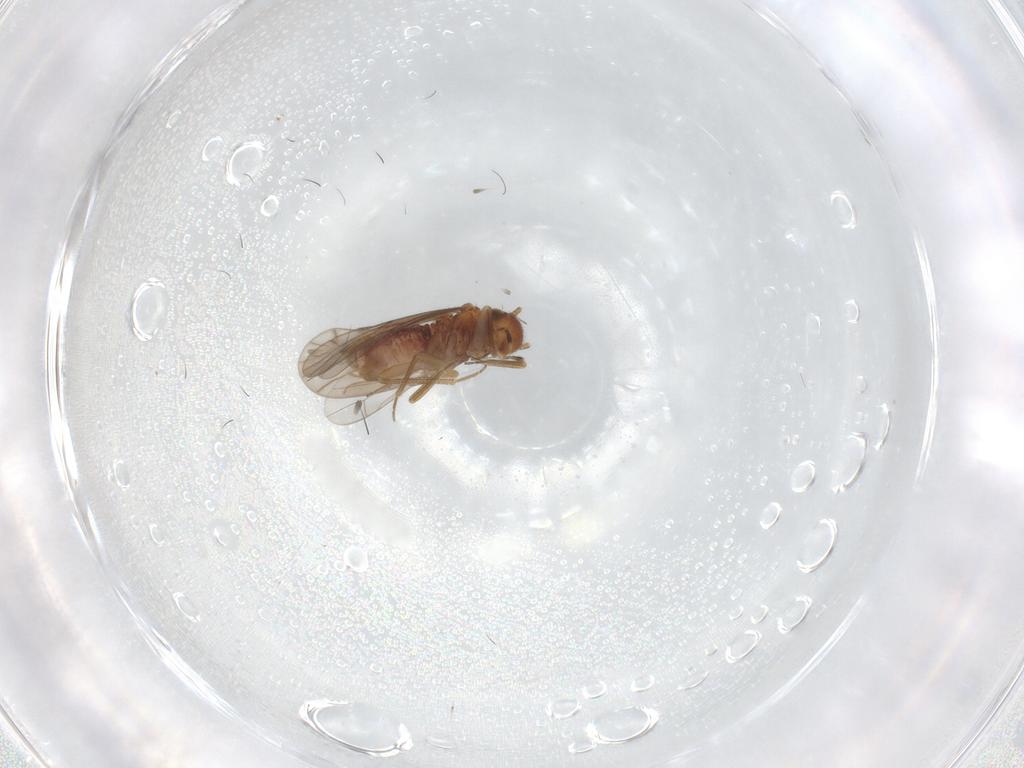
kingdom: Animalia
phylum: Arthropoda
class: Insecta
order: Psocodea
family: Ectopsocidae
